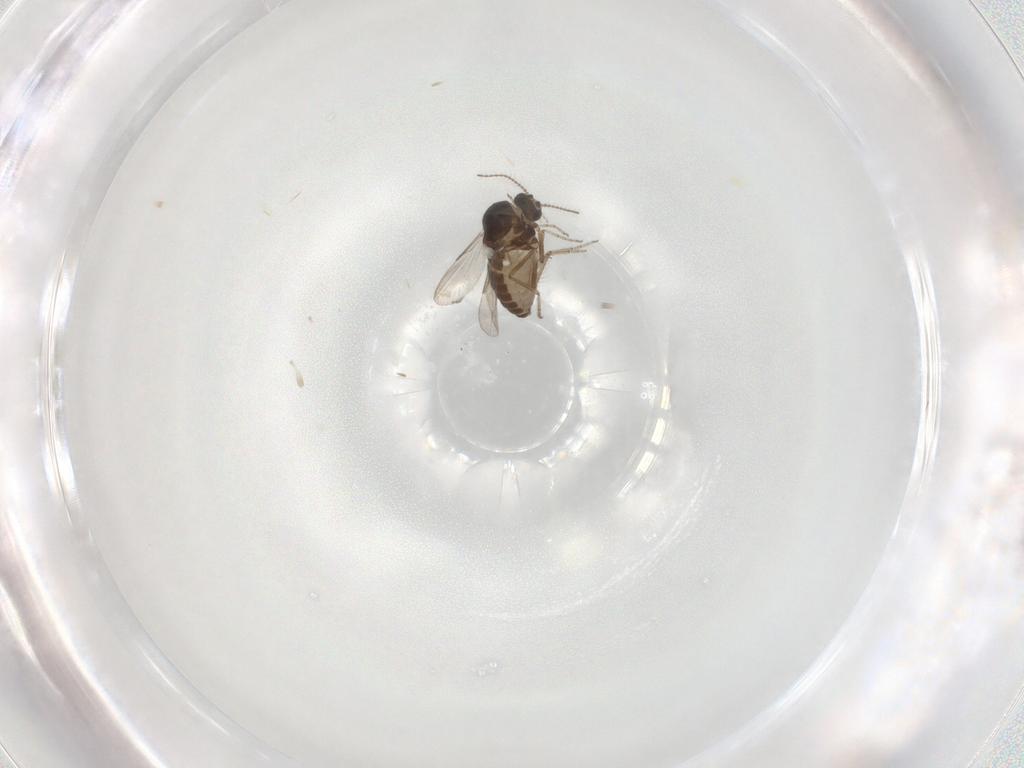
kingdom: Animalia
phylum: Arthropoda
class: Insecta
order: Diptera
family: Ceratopogonidae
